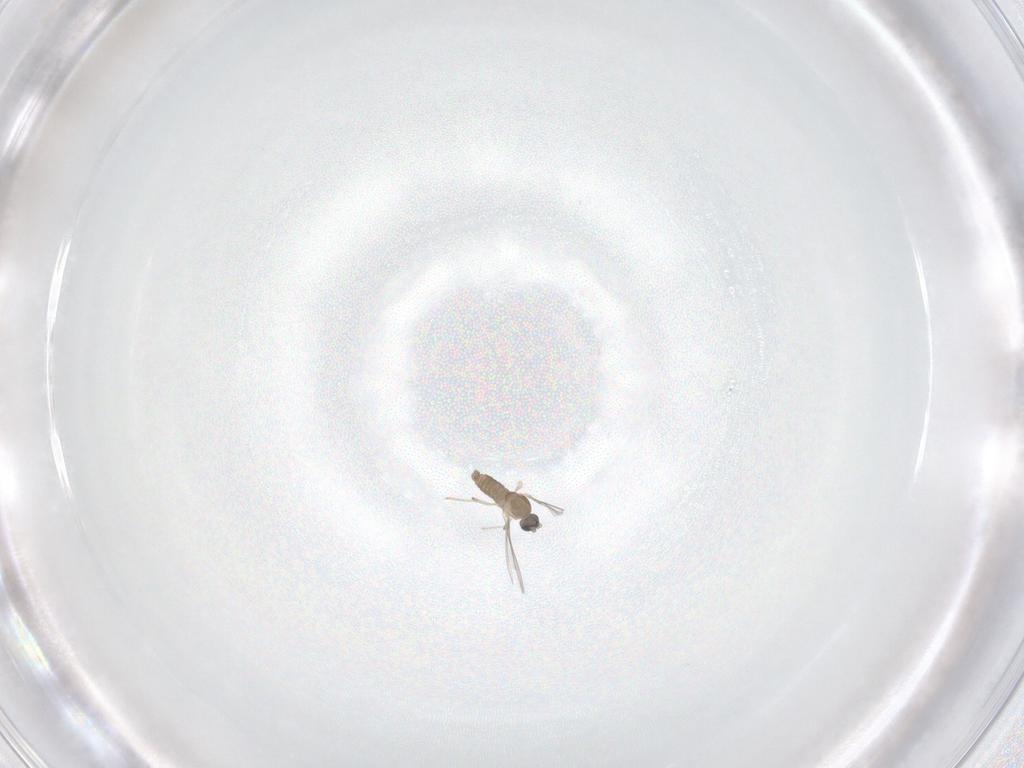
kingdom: Animalia
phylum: Arthropoda
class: Insecta
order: Diptera
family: Cecidomyiidae
